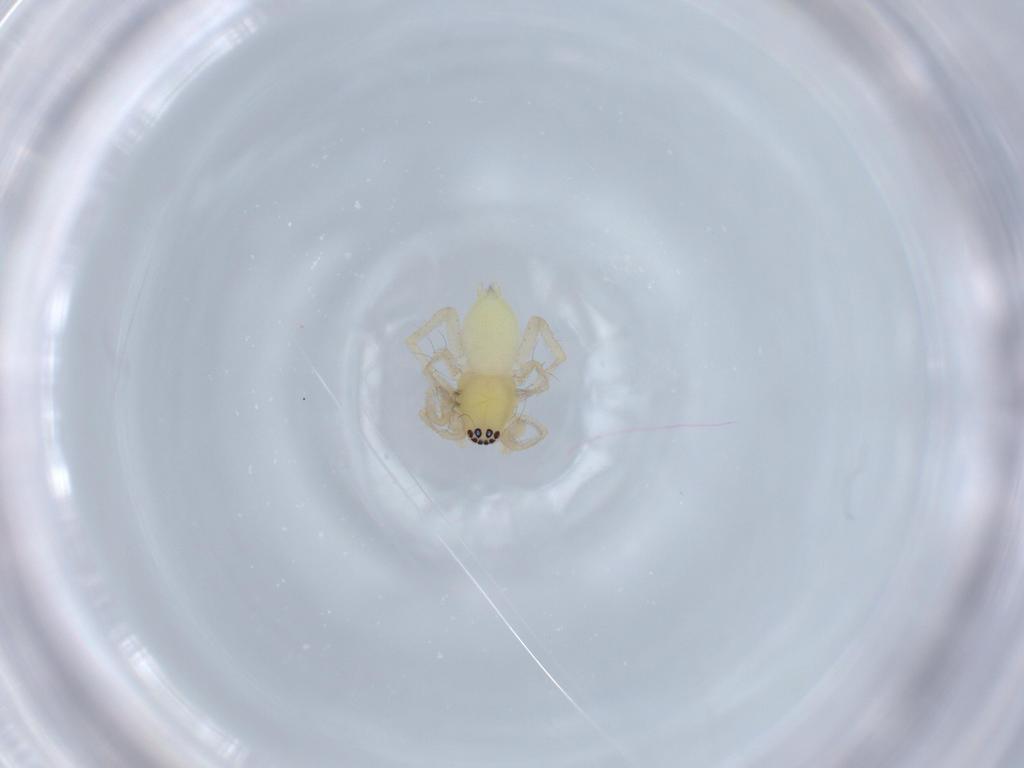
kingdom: Animalia
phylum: Arthropoda
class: Arachnida
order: Araneae
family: Anyphaenidae
